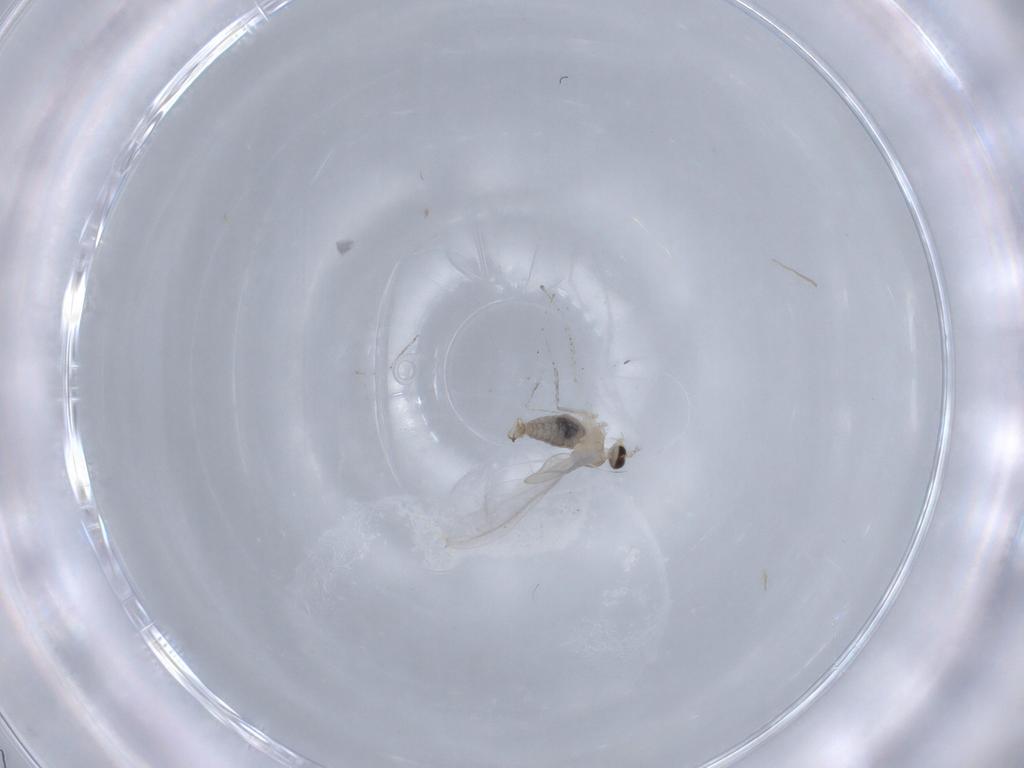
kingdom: Animalia
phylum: Arthropoda
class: Insecta
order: Diptera
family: Cecidomyiidae
